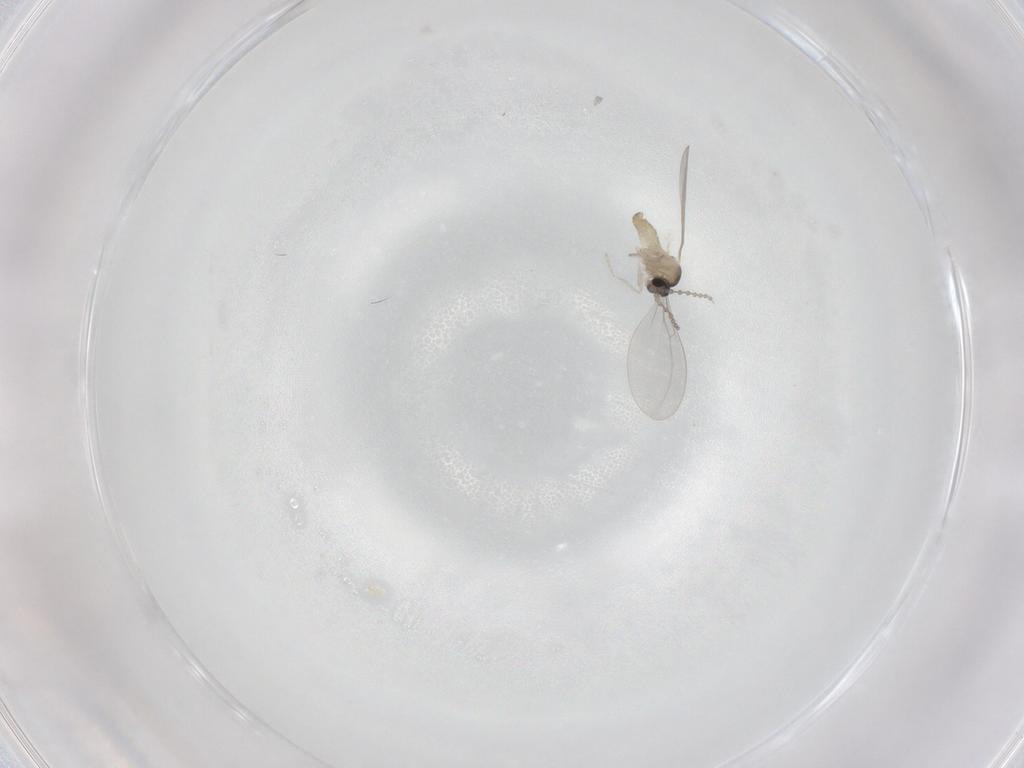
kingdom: Animalia
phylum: Arthropoda
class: Insecta
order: Diptera
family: Cecidomyiidae
